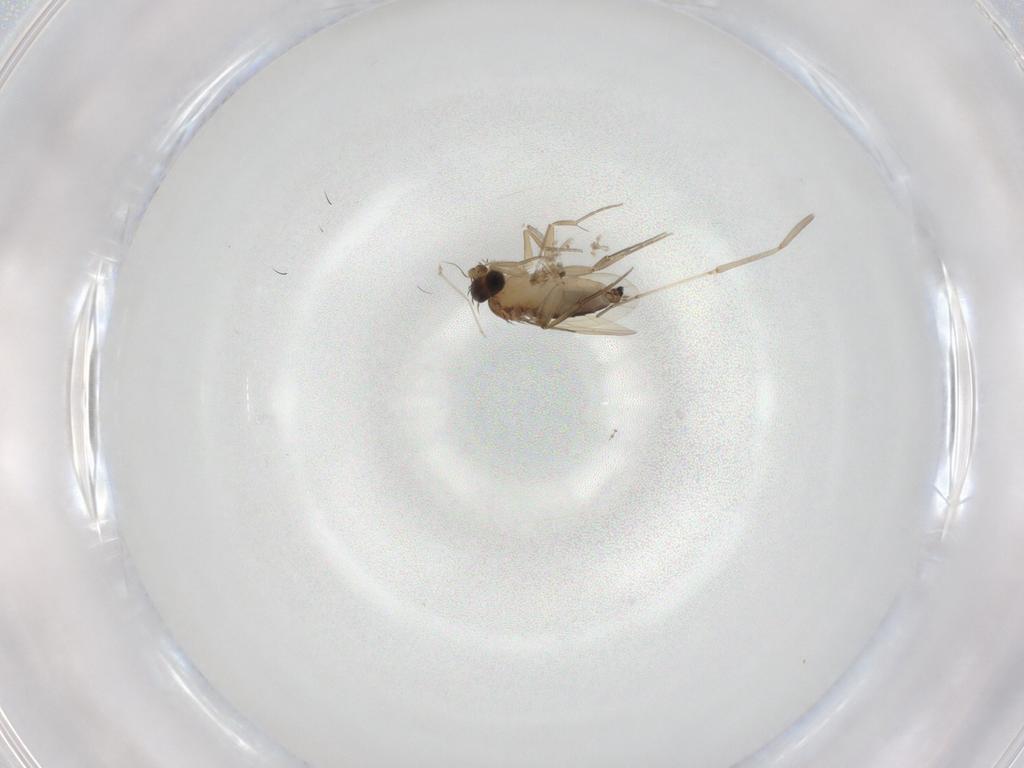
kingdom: Animalia
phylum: Arthropoda
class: Insecta
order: Diptera
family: Phoridae
